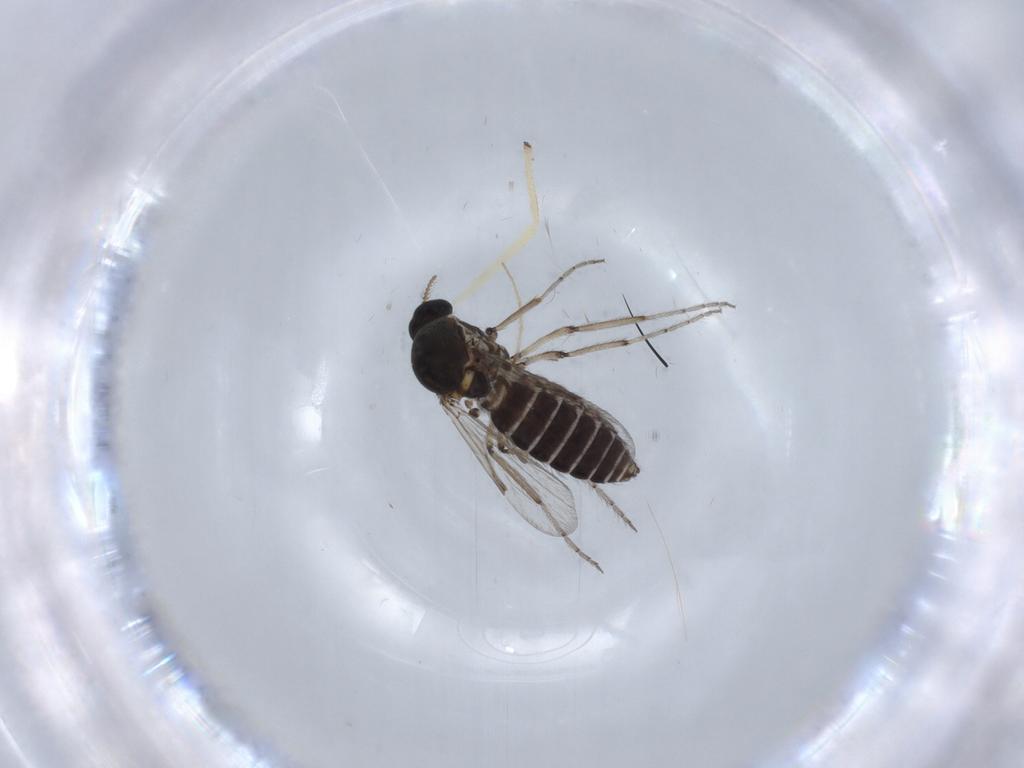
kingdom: Animalia
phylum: Arthropoda
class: Insecta
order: Diptera
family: Ceratopogonidae
